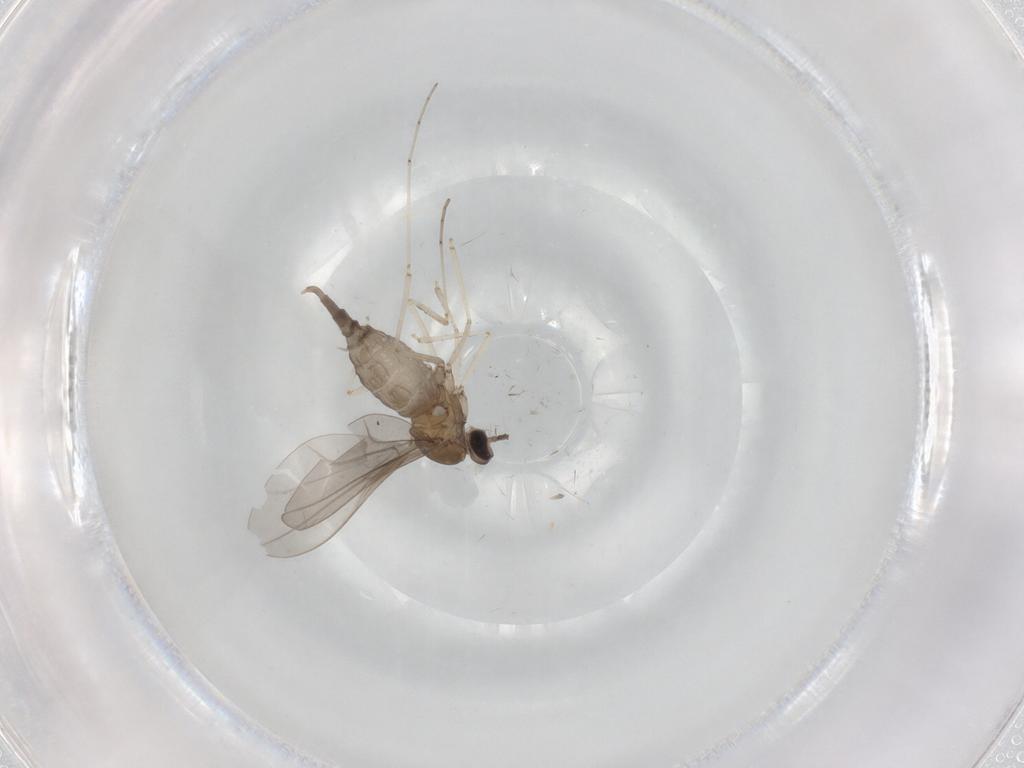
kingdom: Animalia
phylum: Arthropoda
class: Insecta
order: Diptera
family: Cecidomyiidae
